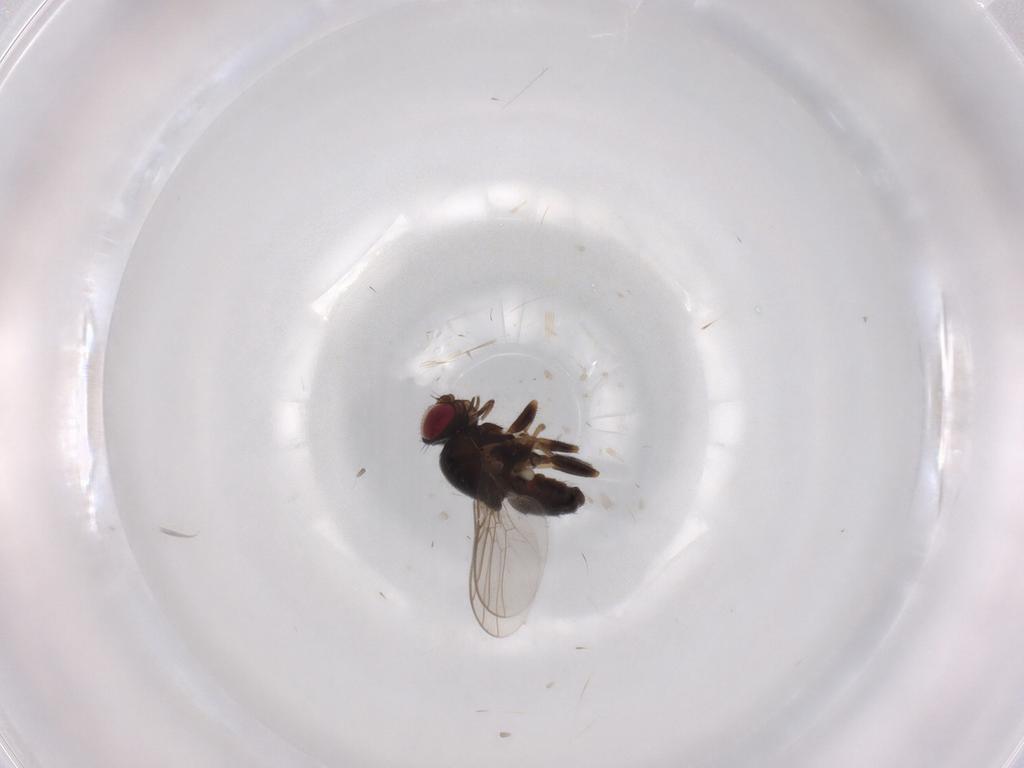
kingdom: Animalia
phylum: Arthropoda
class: Insecta
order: Diptera
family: Chloropidae
